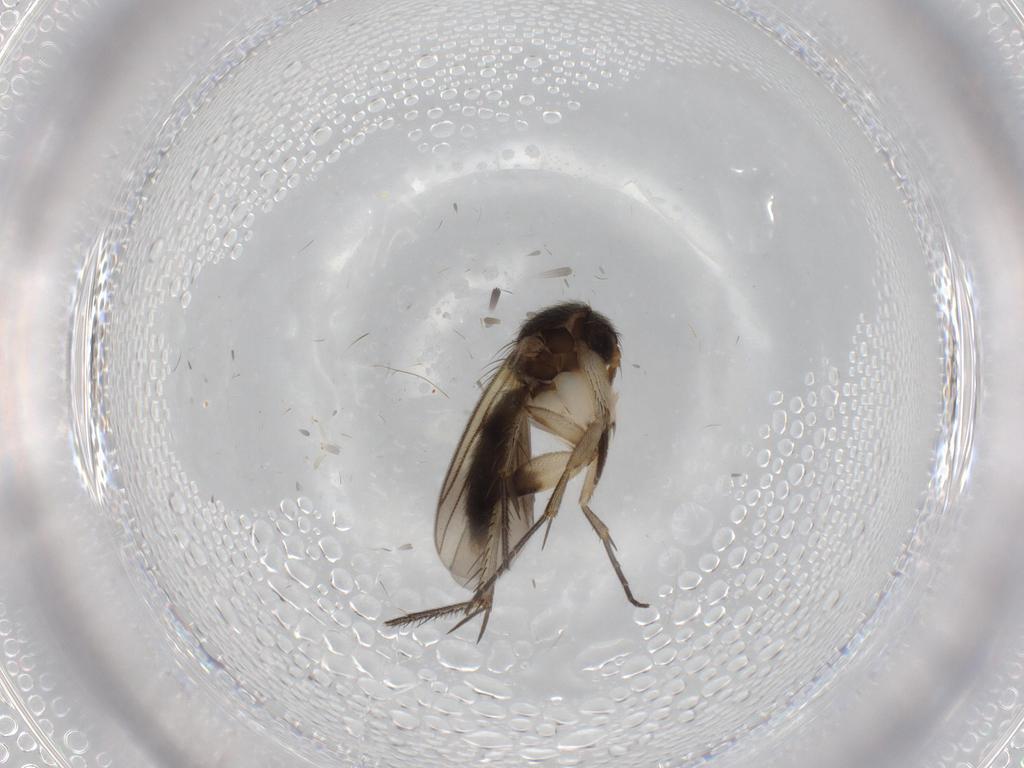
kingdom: Animalia
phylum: Arthropoda
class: Insecta
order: Diptera
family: Mycetophilidae
